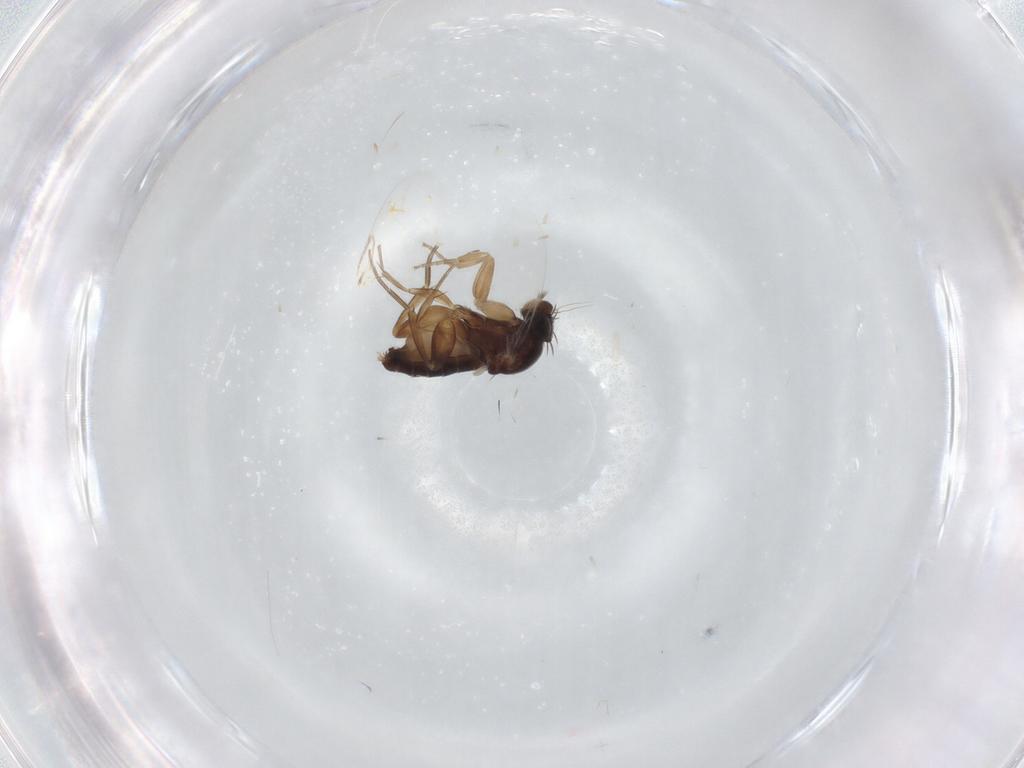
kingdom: Animalia
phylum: Arthropoda
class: Insecta
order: Diptera
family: Phoridae
